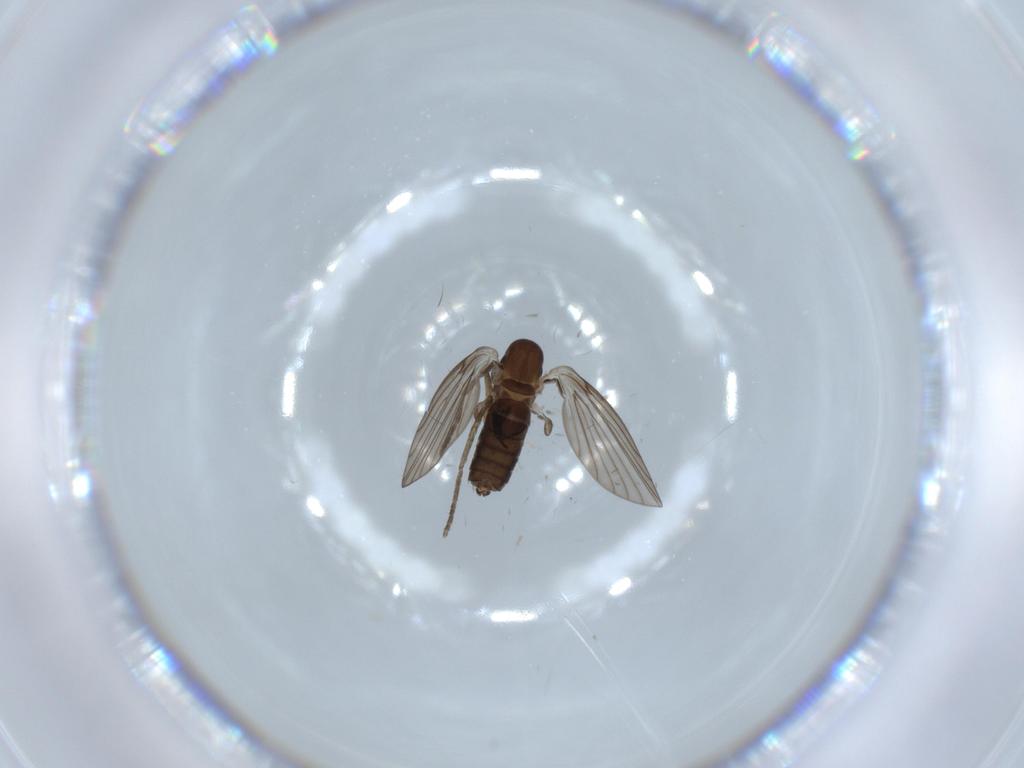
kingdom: Animalia
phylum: Arthropoda
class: Insecta
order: Diptera
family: Psychodidae
